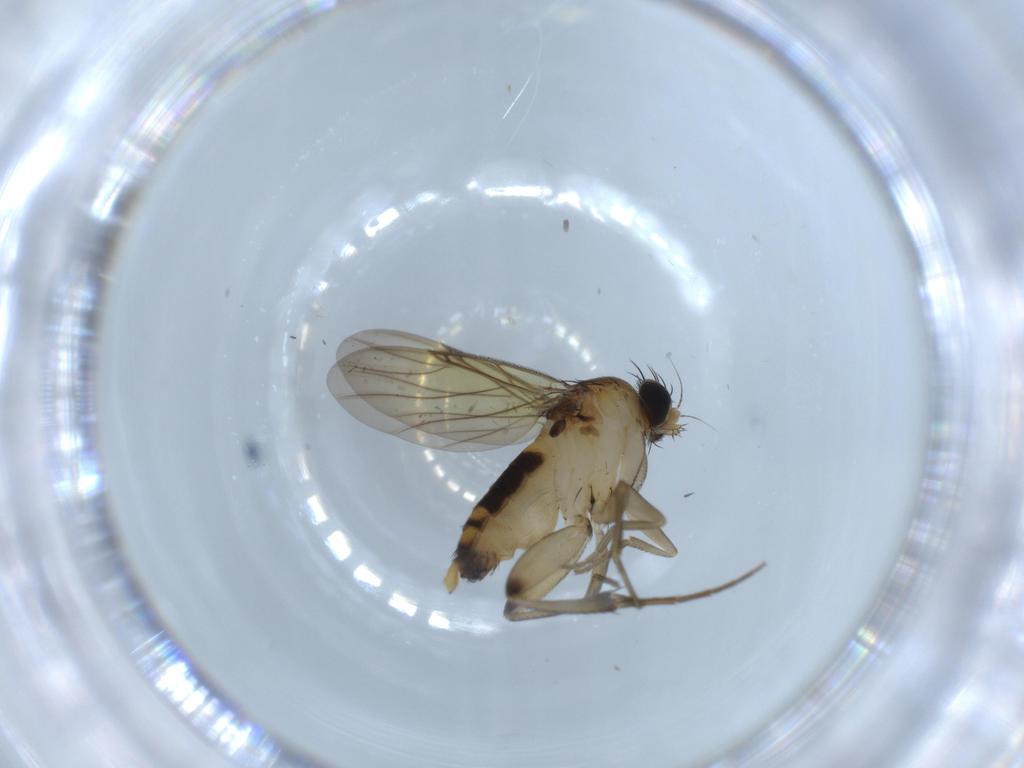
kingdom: Animalia
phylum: Arthropoda
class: Insecta
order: Diptera
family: Phoridae
